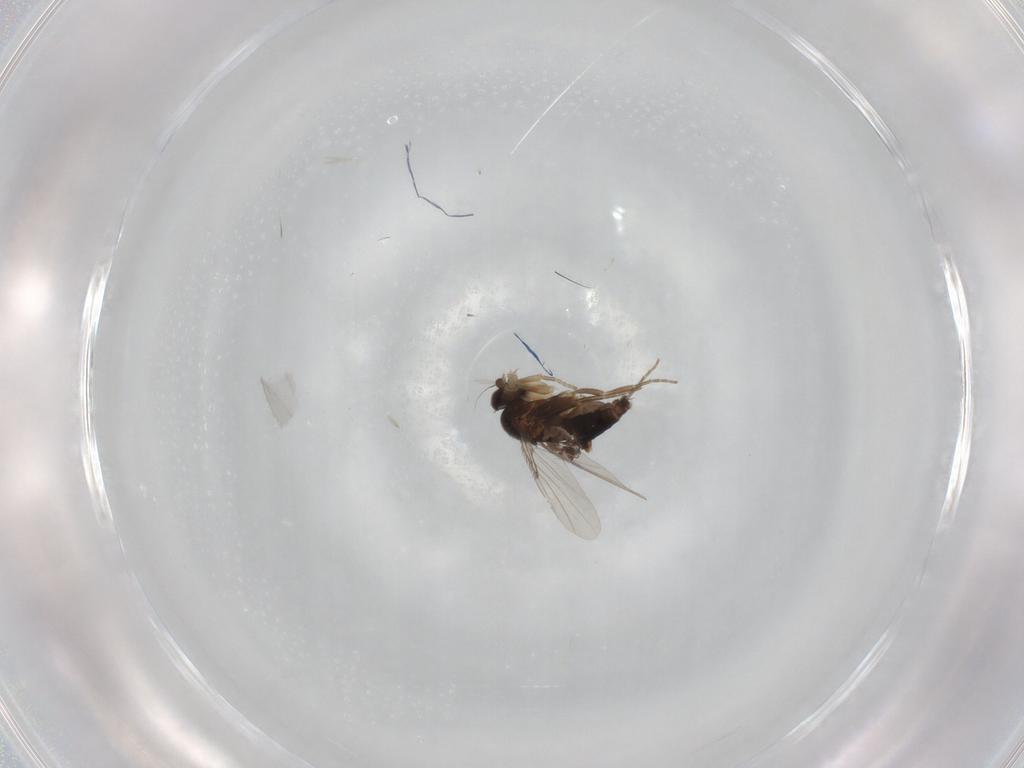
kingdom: Animalia
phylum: Arthropoda
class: Insecta
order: Diptera
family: Phoridae
